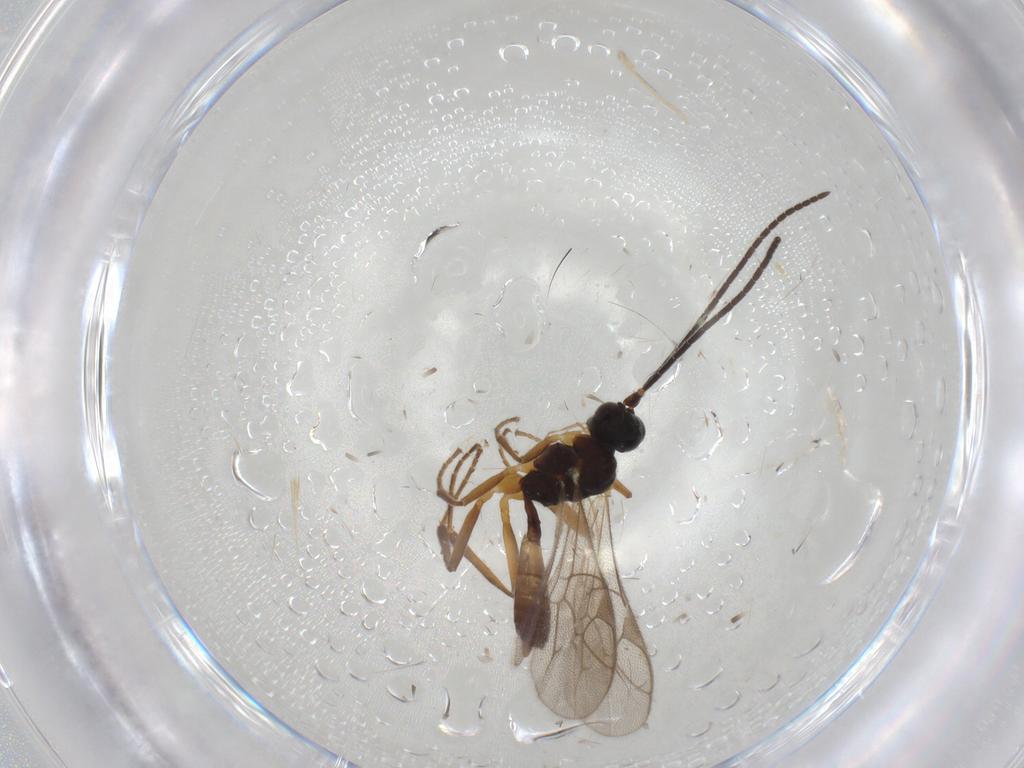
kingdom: Animalia
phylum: Arthropoda
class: Insecta
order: Hymenoptera
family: Ichneumonidae
